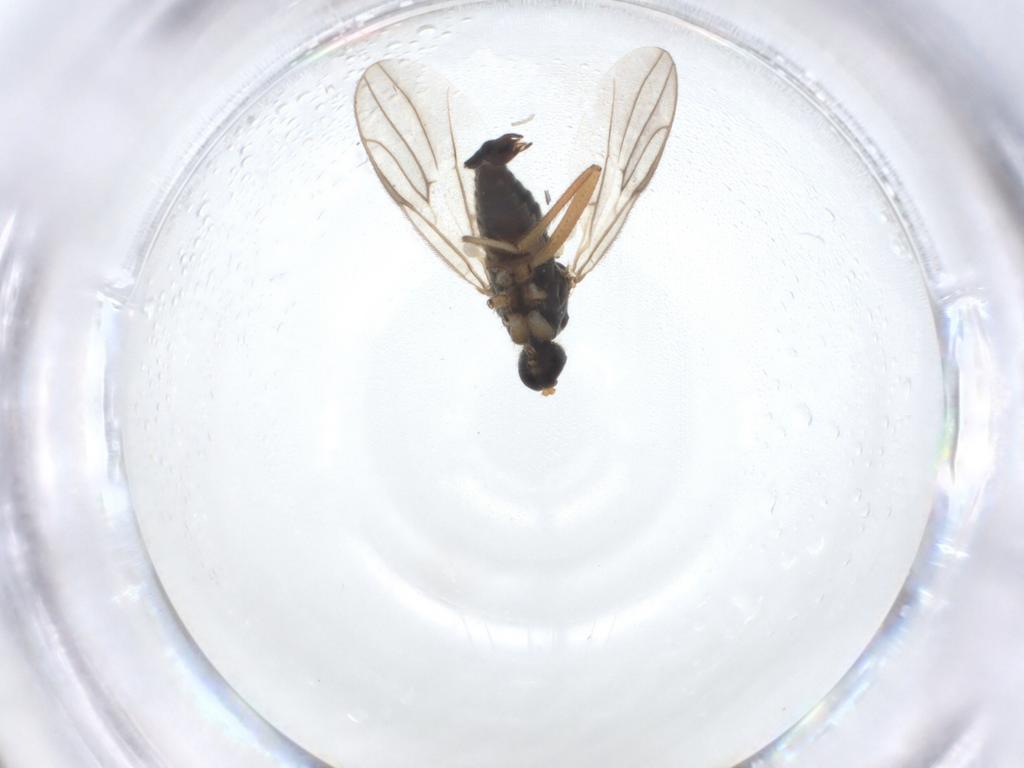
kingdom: Animalia
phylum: Arthropoda
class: Insecta
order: Diptera
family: Hybotidae
